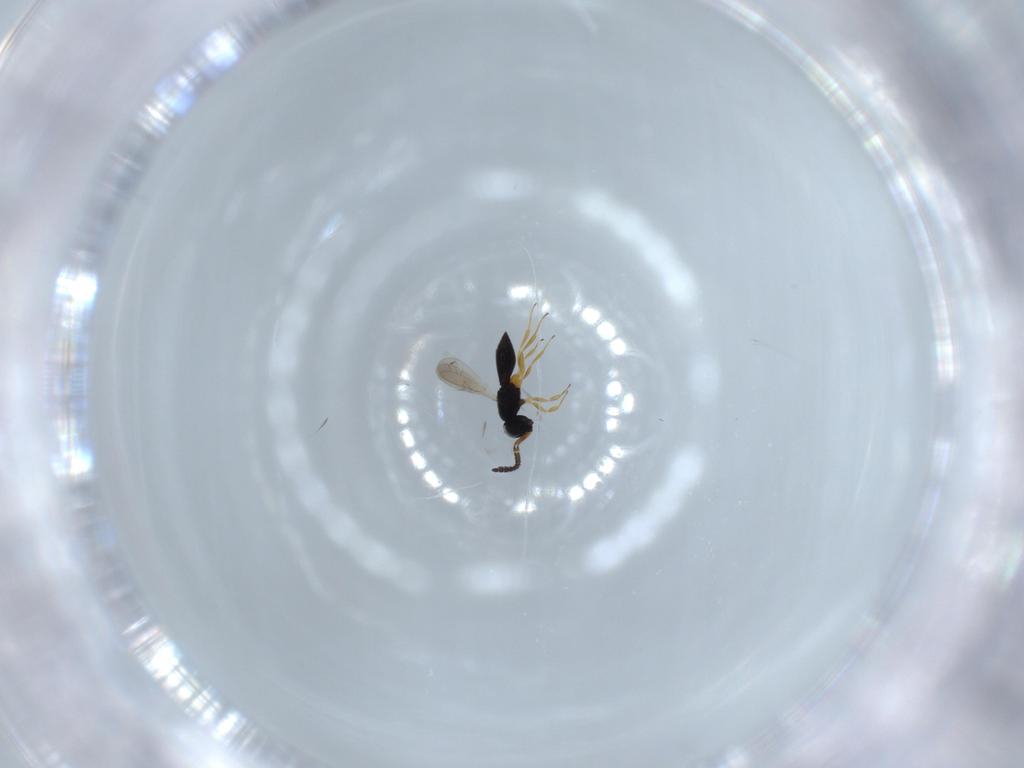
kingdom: Animalia
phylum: Arthropoda
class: Insecta
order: Hymenoptera
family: Scelionidae
